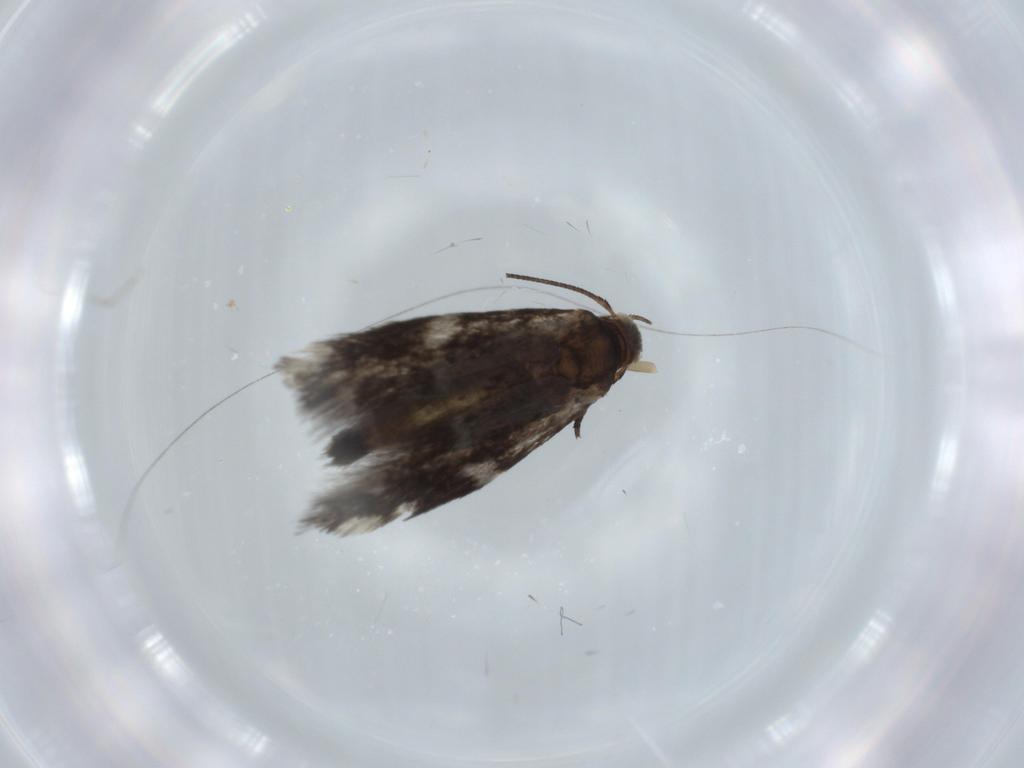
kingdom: Animalia
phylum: Arthropoda
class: Insecta
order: Lepidoptera
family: Elachistidae
